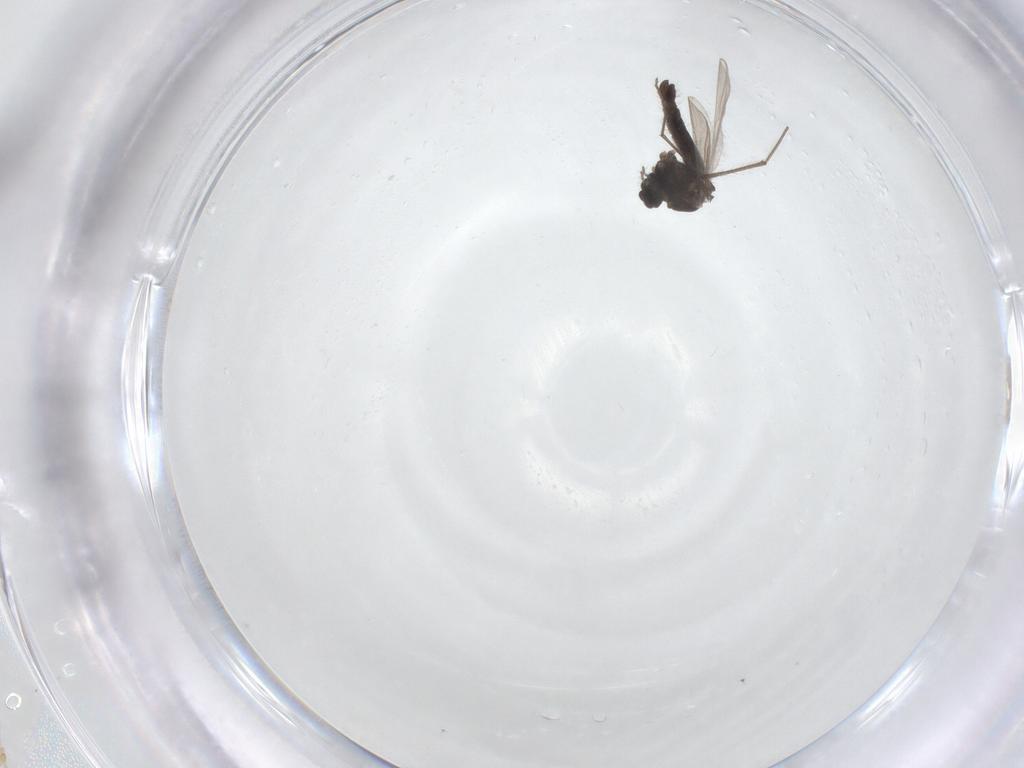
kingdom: Animalia
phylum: Arthropoda
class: Insecta
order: Diptera
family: Chironomidae
